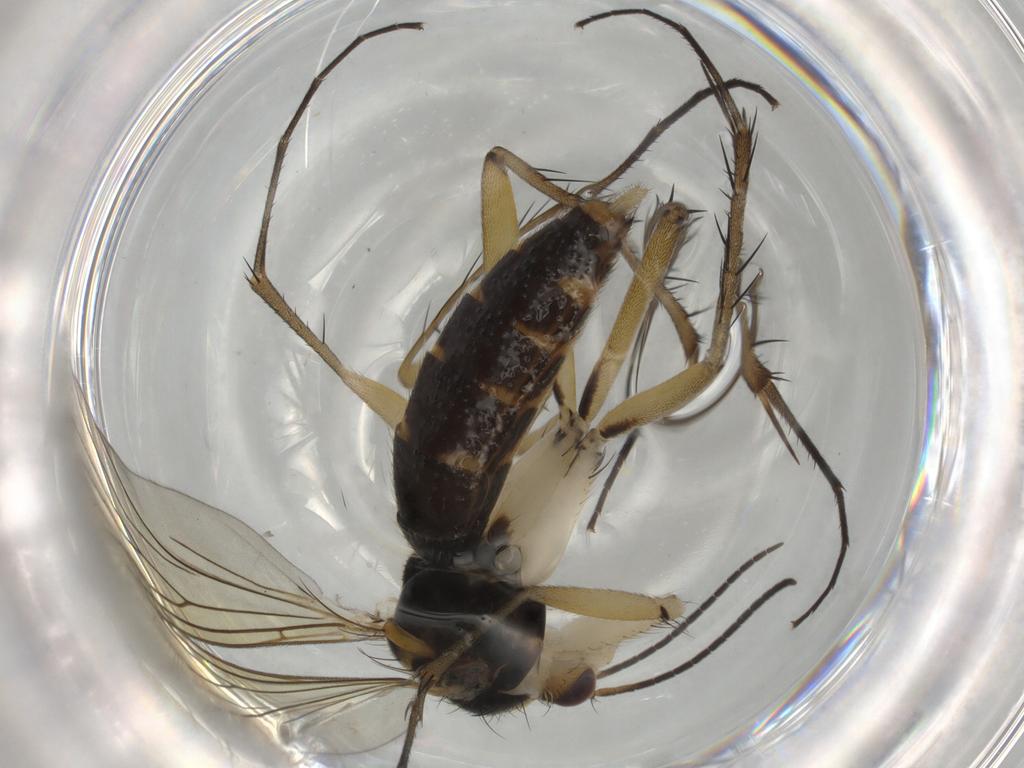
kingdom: Animalia
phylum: Arthropoda
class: Insecta
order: Diptera
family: Mycetophilidae
